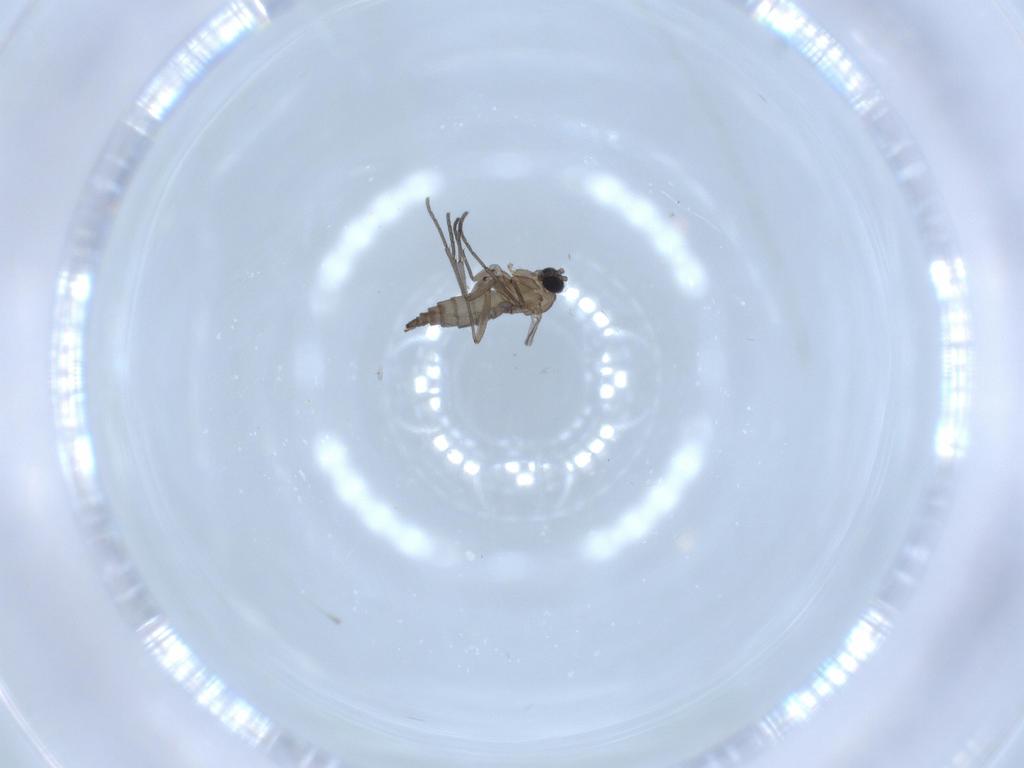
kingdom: Animalia
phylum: Arthropoda
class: Insecta
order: Diptera
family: Sciaridae
